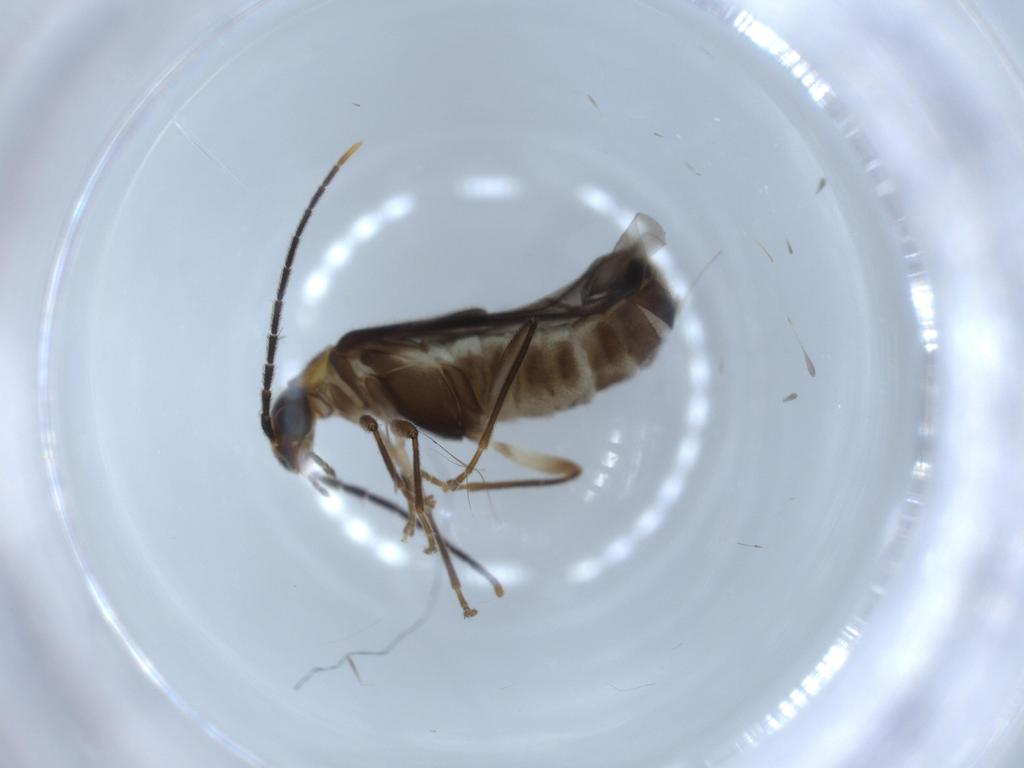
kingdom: Animalia
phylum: Arthropoda
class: Insecta
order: Coleoptera
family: Cantharidae
